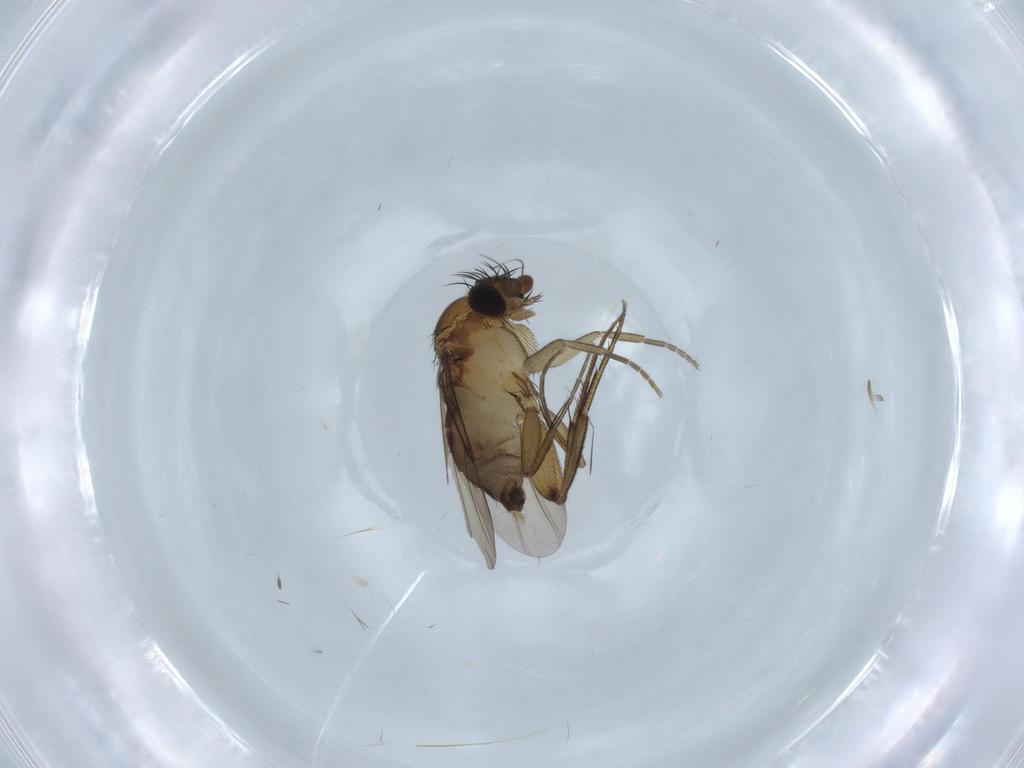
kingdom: Animalia
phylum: Arthropoda
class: Insecta
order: Diptera
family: Phoridae
